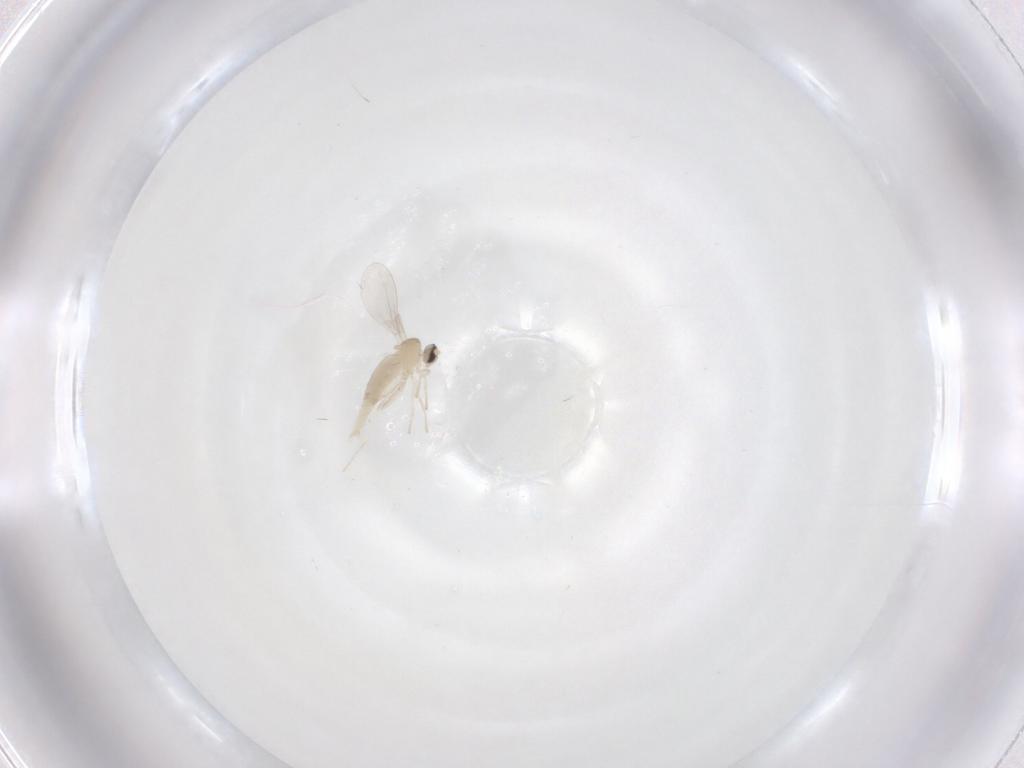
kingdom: Animalia
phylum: Arthropoda
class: Insecta
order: Diptera
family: Cecidomyiidae
